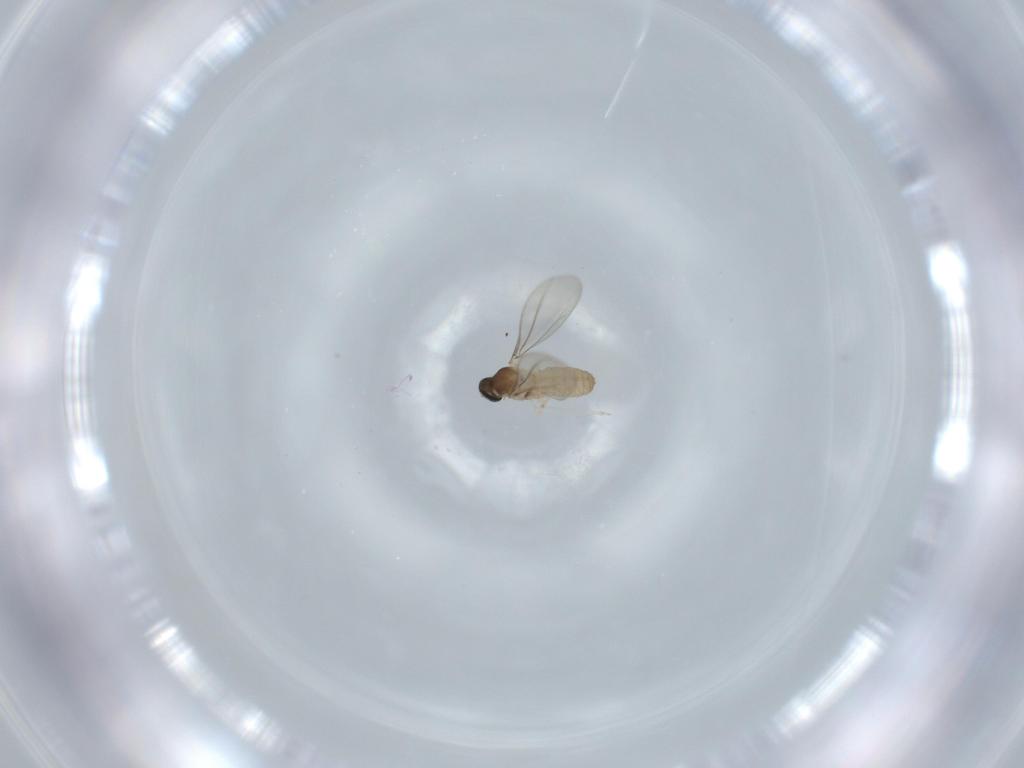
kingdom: Animalia
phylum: Arthropoda
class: Insecta
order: Diptera
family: Cecidomyiidae
